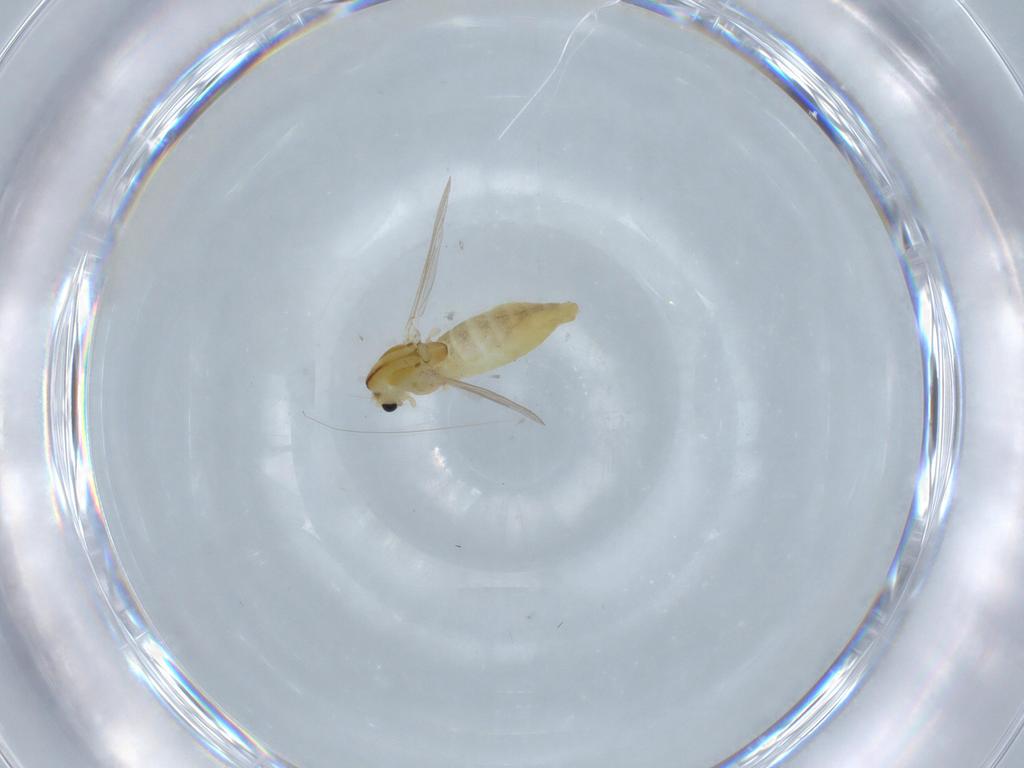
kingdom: Animalia
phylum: Arthropoda
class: Insecta
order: Diptera
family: Chironomidae
